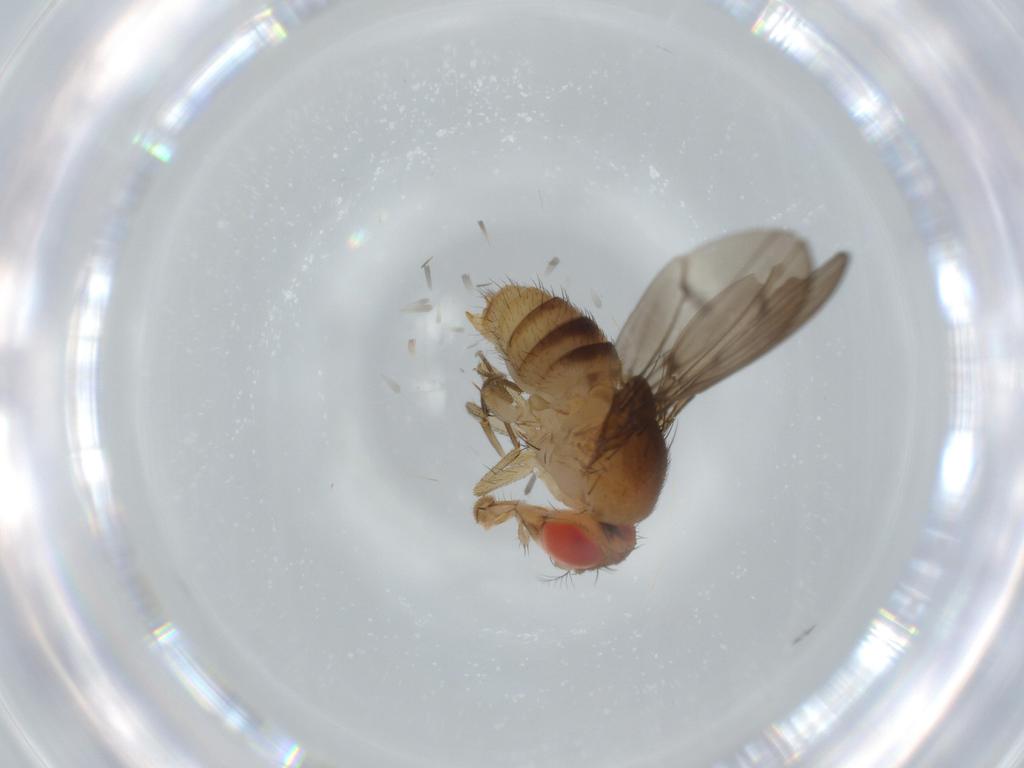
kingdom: Animalia
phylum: Arthropoda
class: Insecta
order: Diptera
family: Drosophilidae
